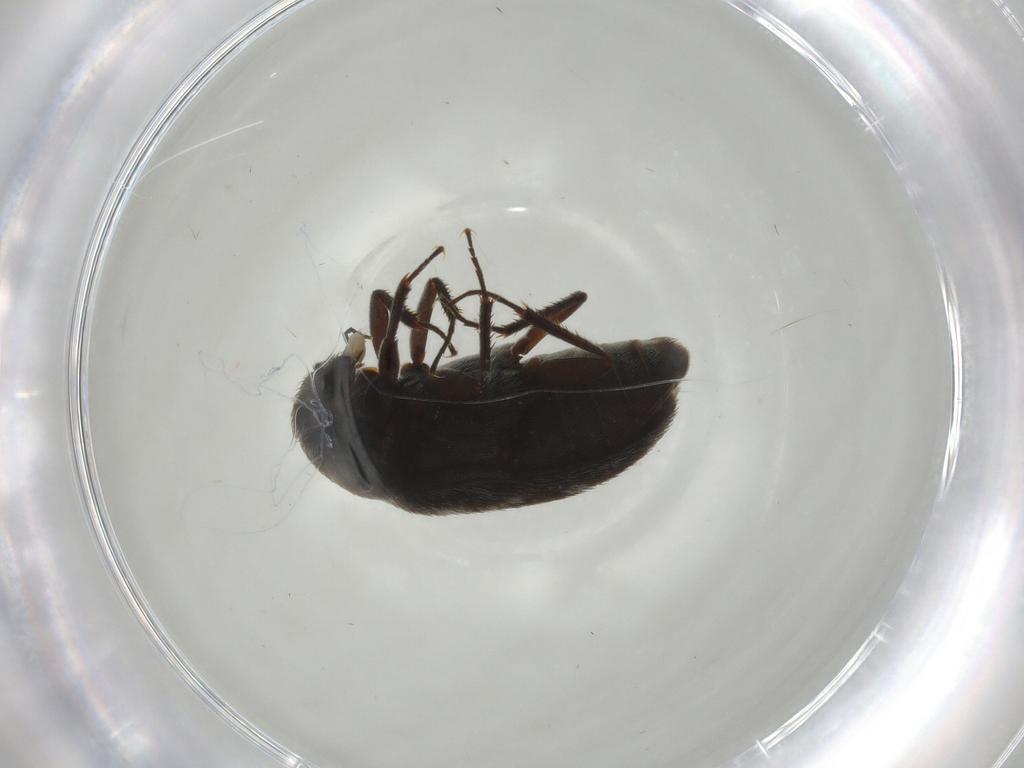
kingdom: Animalia
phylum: Arthropoda
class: Insecta
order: Coleoptera
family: Dermestidae
